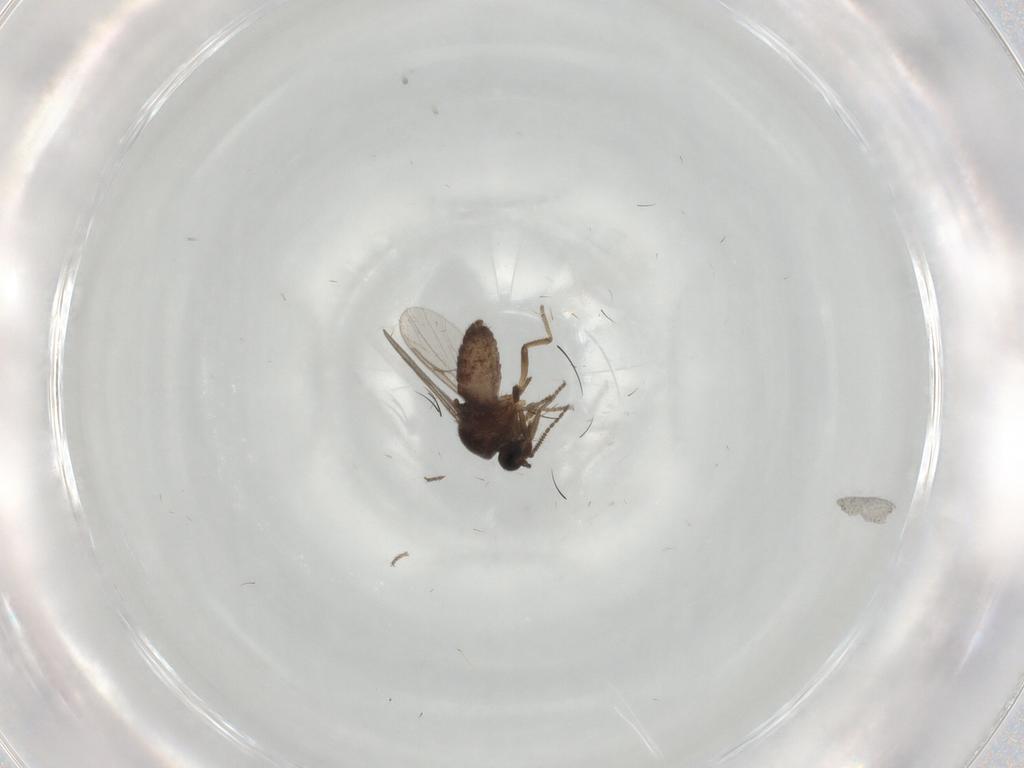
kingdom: Animalia
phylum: Arthropoda
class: Insecta
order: Diptera
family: Ceratopogonidae
